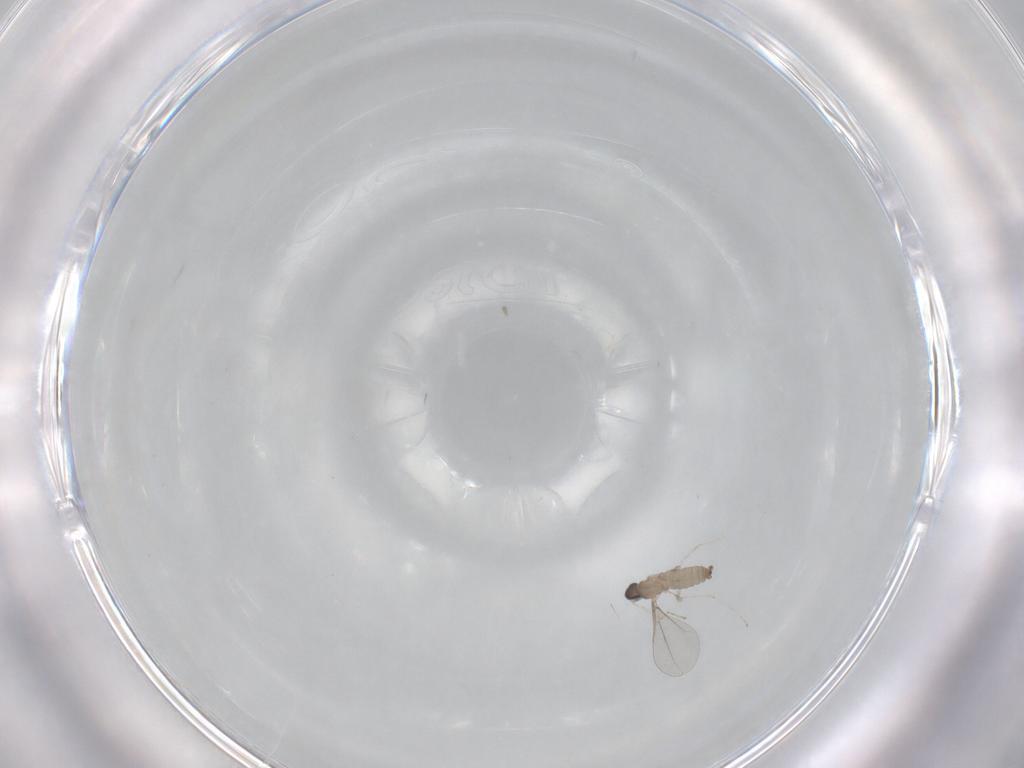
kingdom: Animalia
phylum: Arthropoda
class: Insecta
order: Diptera
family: Cecidomyiidae
